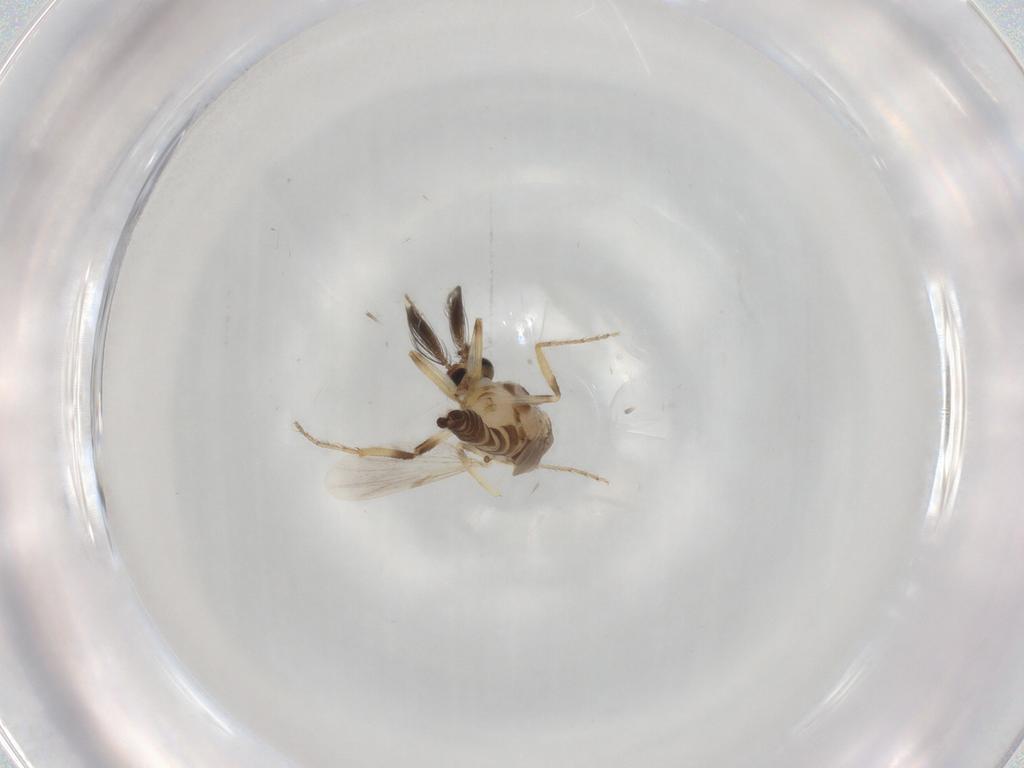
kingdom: Animalia
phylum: Arthropoda
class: Insecta
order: Diptera
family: Ceratopogonidae
